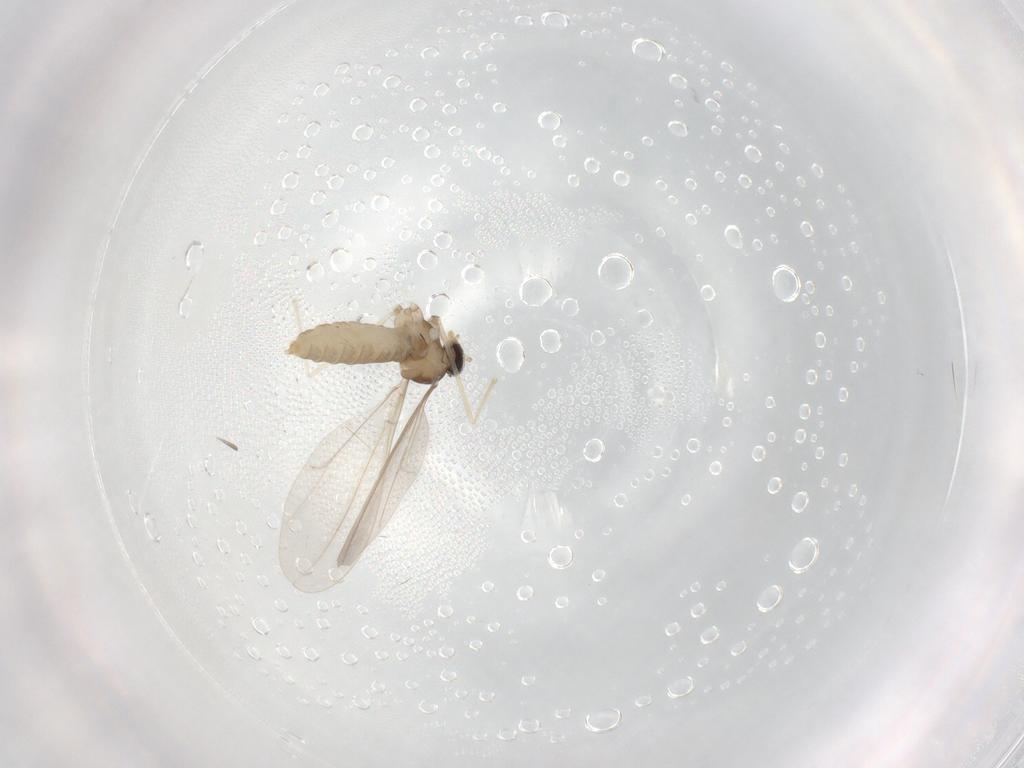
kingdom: Animalia
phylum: Arthropoda
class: Insecta
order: Diptera
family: Cecidomyiidae
